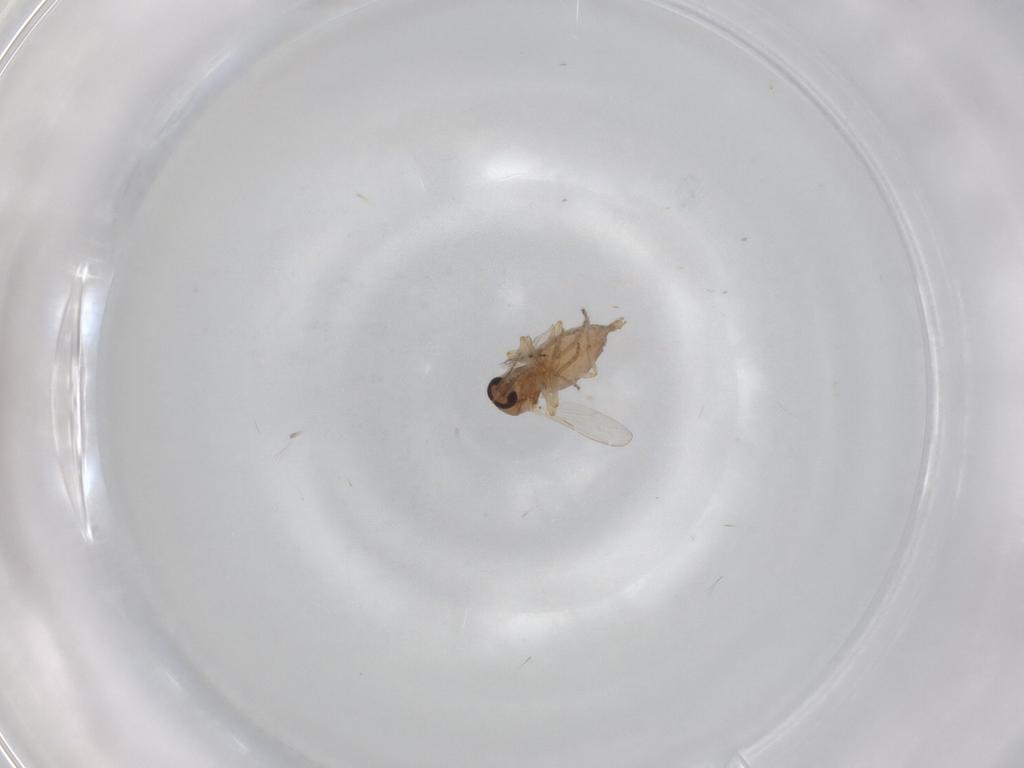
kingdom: Animalia
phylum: Arthropoda
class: Insecta
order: Diptera
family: Ceratopogonidae
